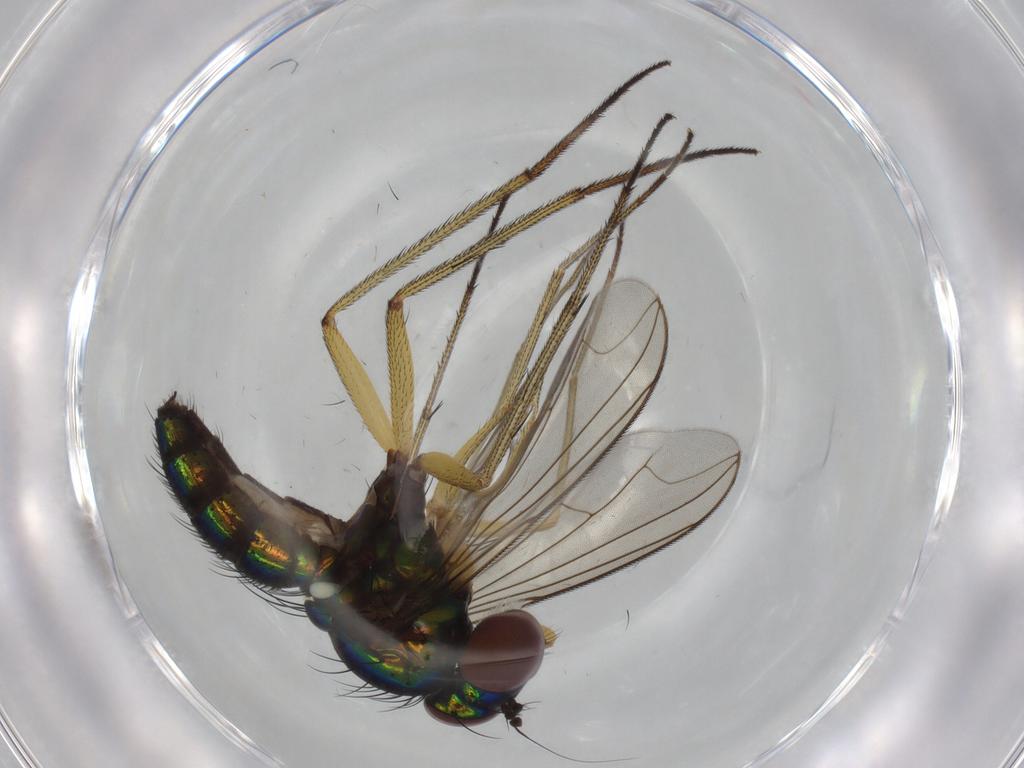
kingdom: Animalia
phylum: Arthropoda
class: Insecta
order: Diptera
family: Dolichopodidae
